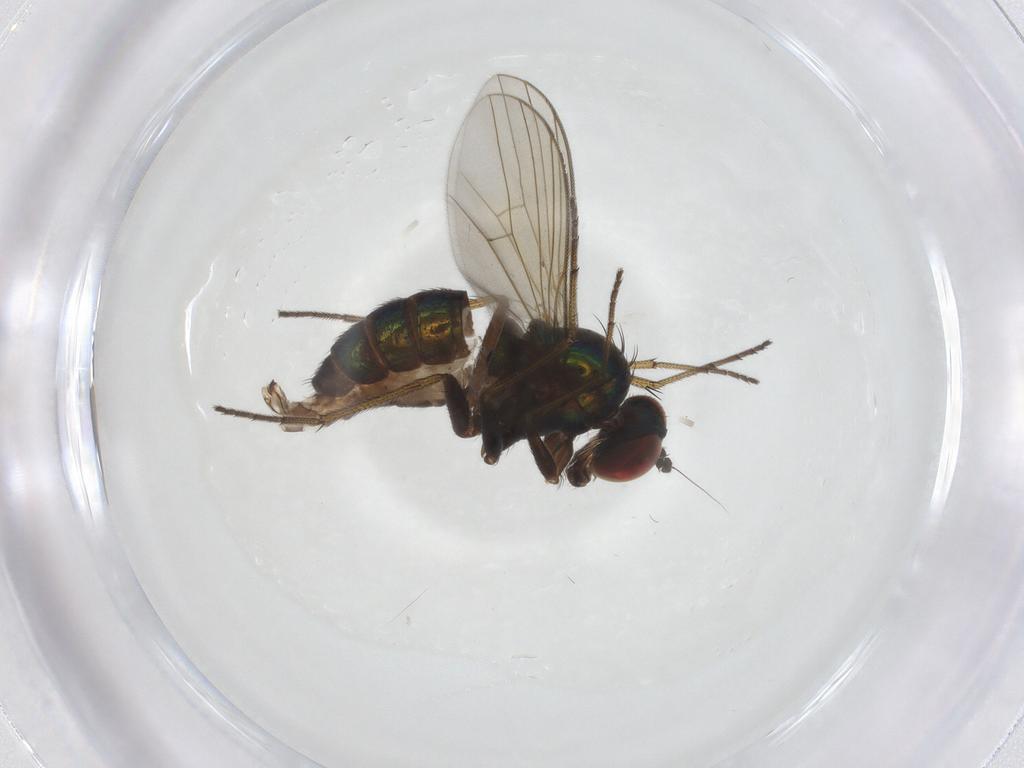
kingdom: Animalia
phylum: Arthropoda
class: Insecta
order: Diptera
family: Dolichopodidae
